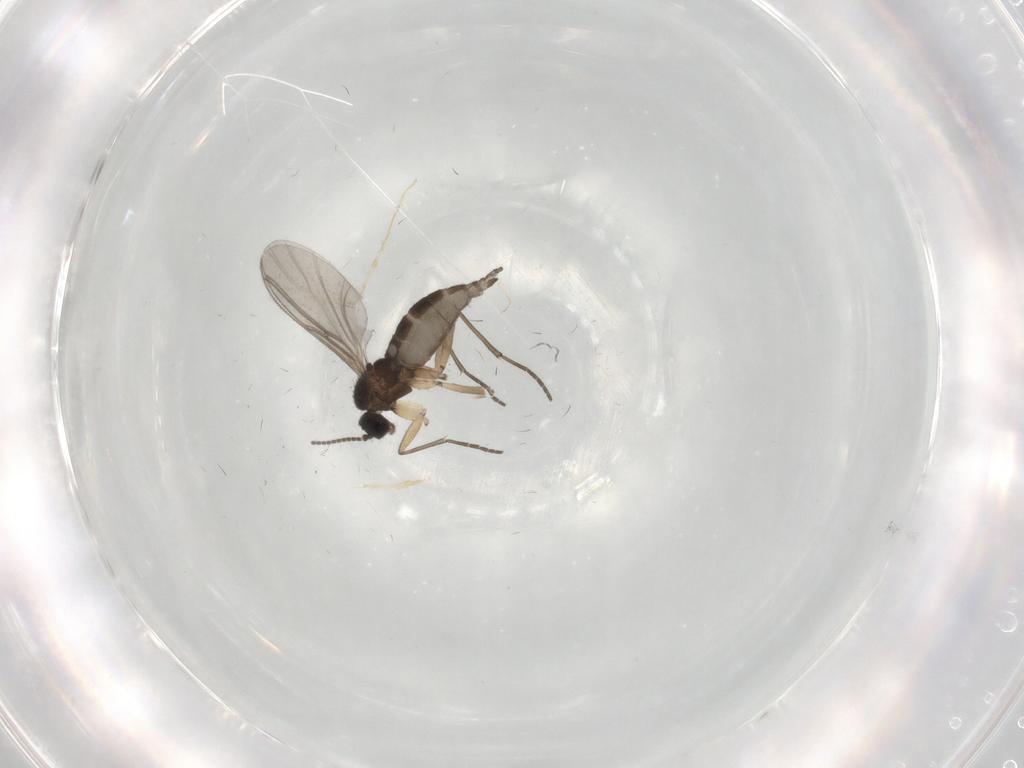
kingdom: Animalia
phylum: Arthropoda
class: Insecta
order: Diptera
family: Sciaridae
